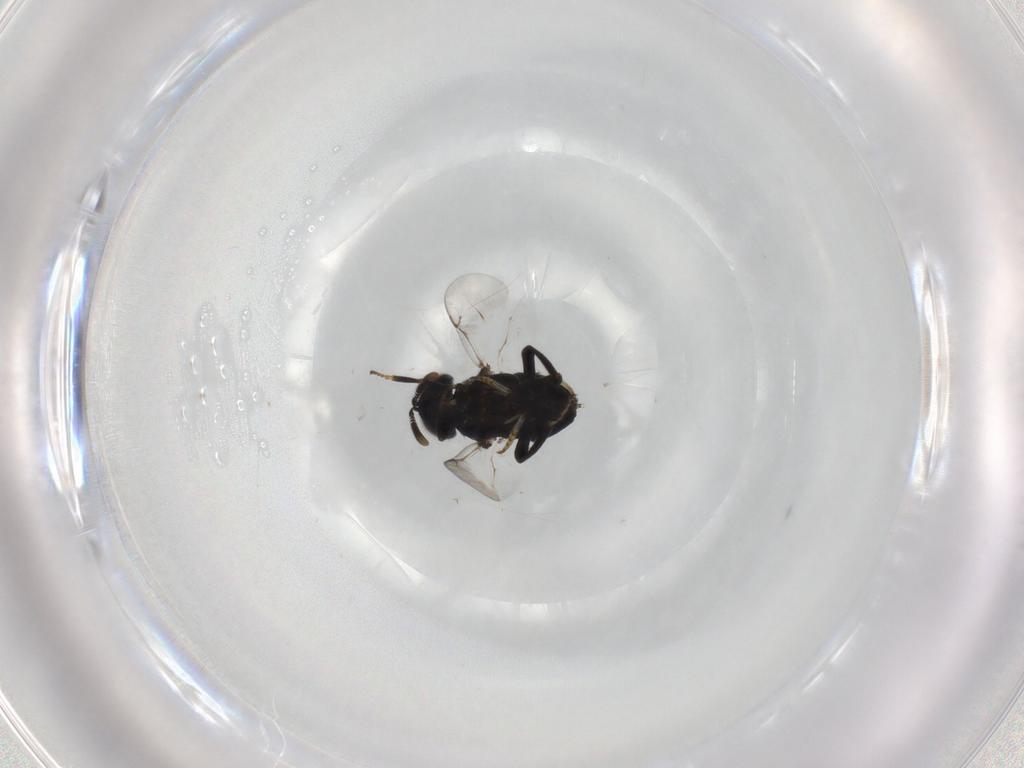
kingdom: Animalia
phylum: Arthropoda
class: Insecta
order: Hymenoptera
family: Encyrtidae
